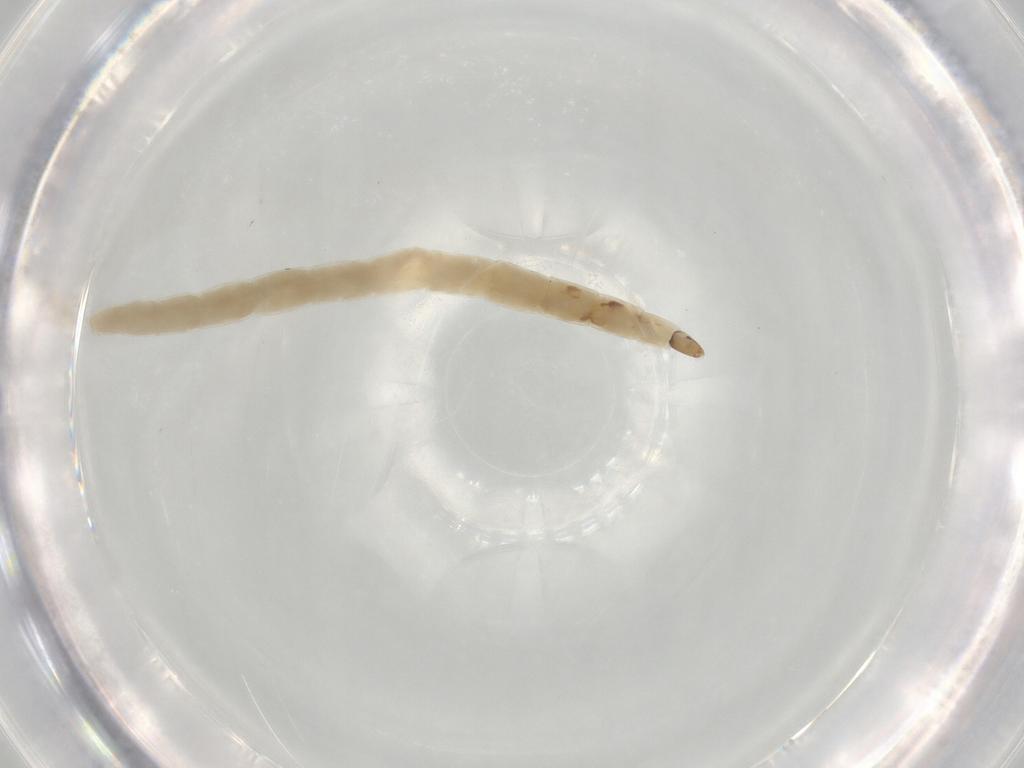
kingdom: Animalia
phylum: Arthropoda
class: Insecta
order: Diptera
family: Ceratopogonidae
